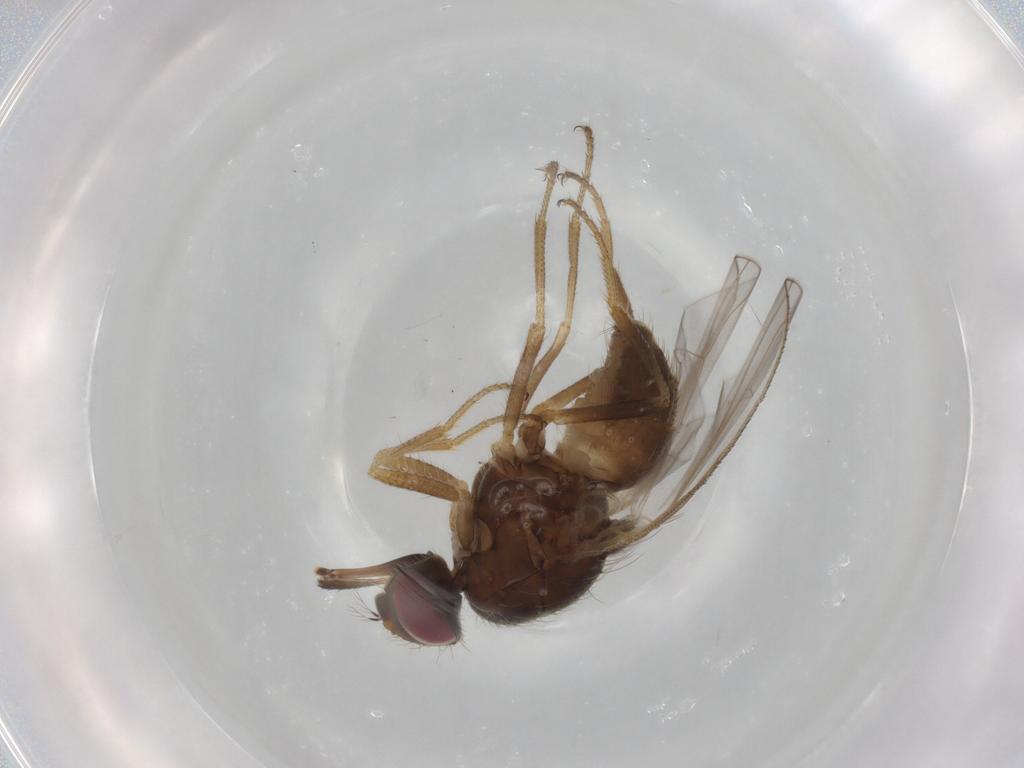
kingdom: Animalia
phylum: Arthropoda
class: Insecta
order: Diptera
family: Muscidae
